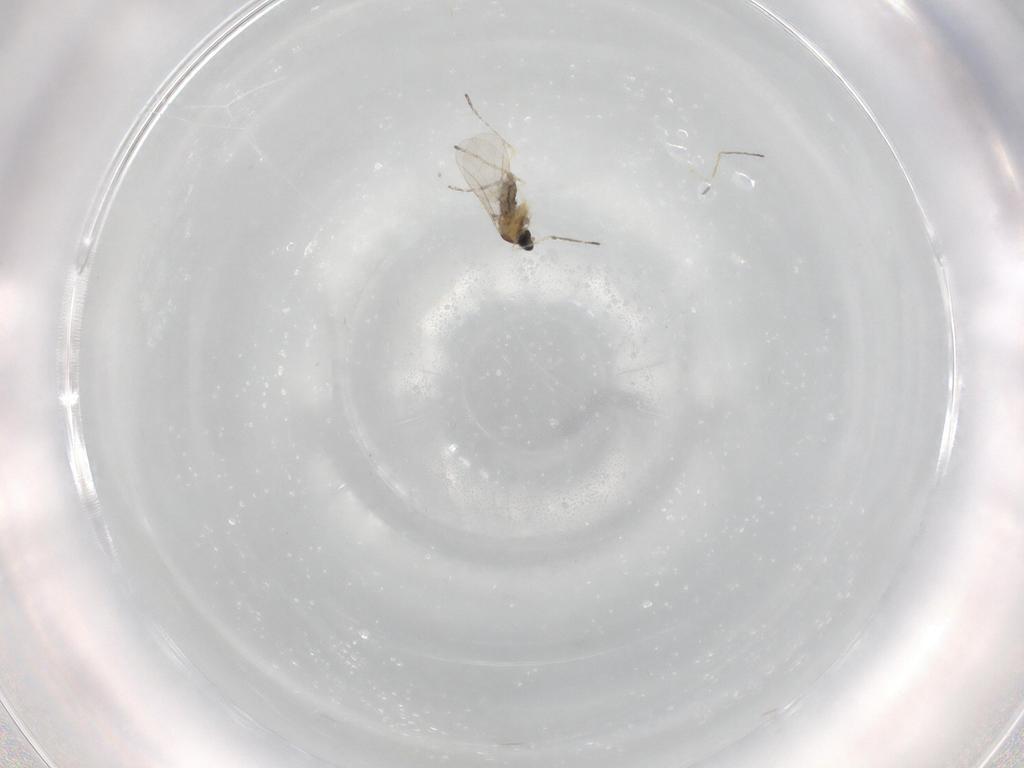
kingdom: Animalia
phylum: Arthropoda
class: Insecta
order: Diptera
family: Cecidomyiidae
